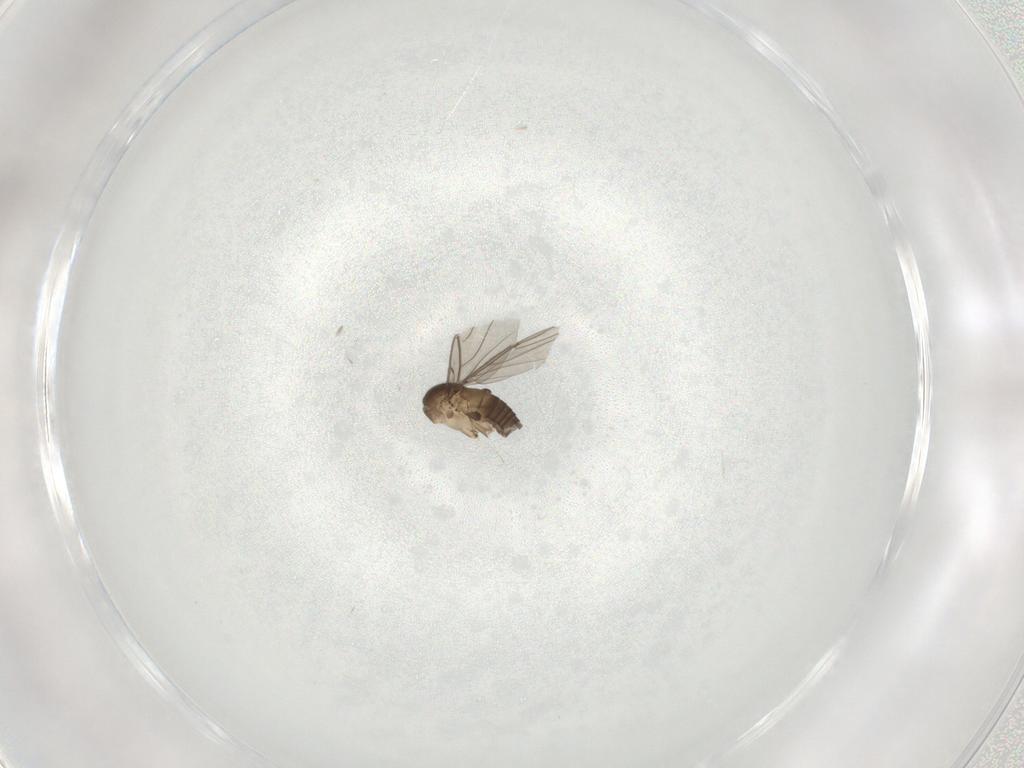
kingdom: Animalia
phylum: Arthropoda
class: Insecta
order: Diptera
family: Phoridae
